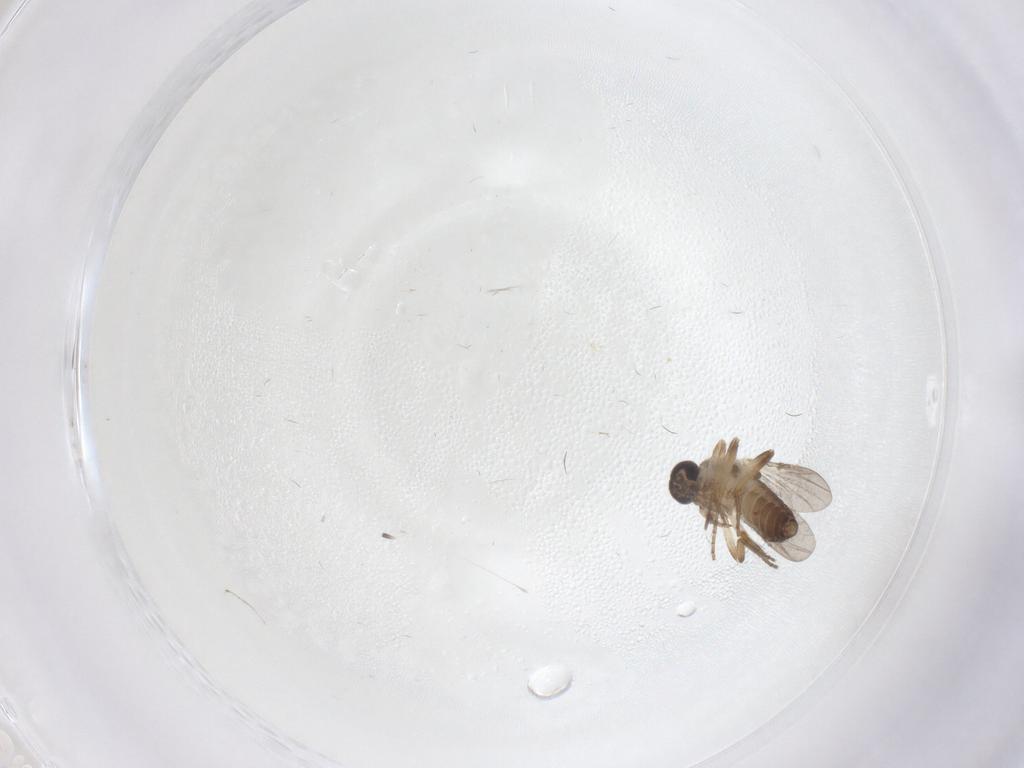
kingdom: Animalia
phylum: Arthropoda
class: Insecta
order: Diptera
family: Ceratopogonidae
